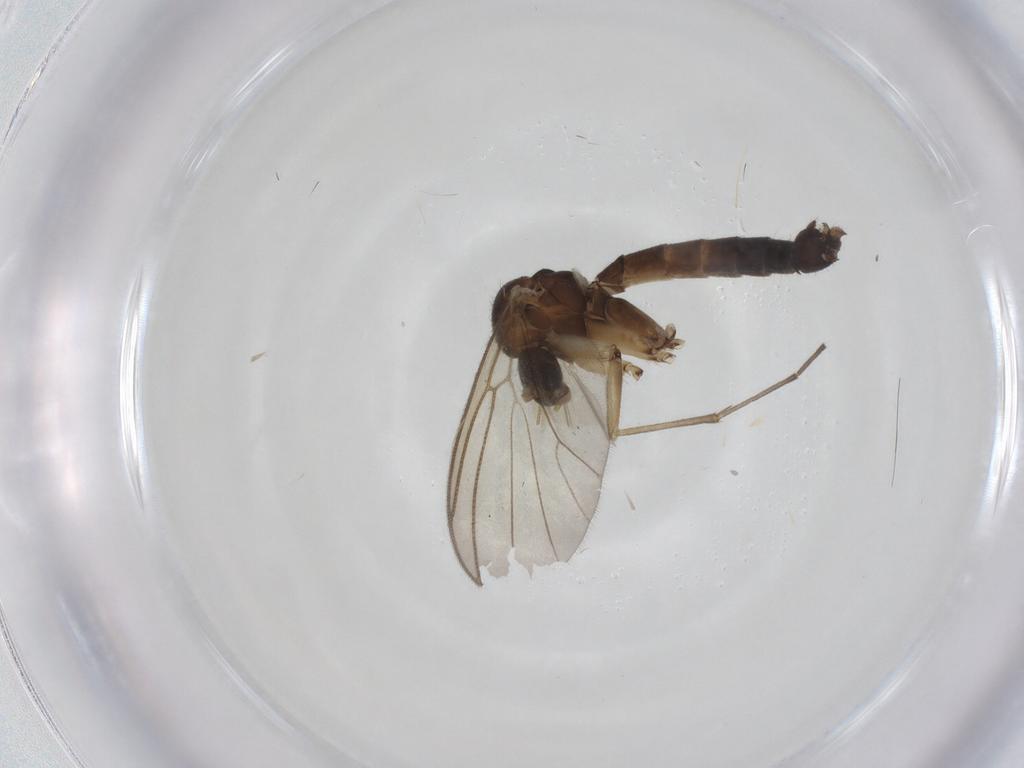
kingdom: Animalia
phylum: Arthropoda
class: Insecta
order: Diptera
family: Mycetophilidae
